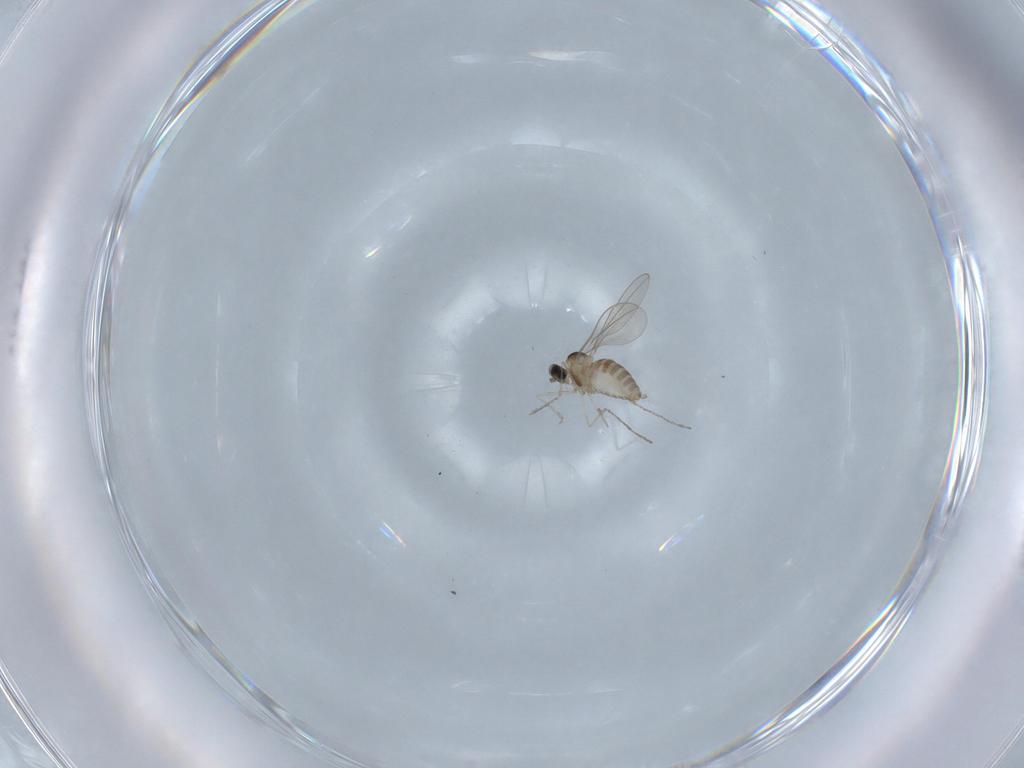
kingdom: Animalia
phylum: Arthropoda
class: Insecta
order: Diptera
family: Cecidomyiidae
